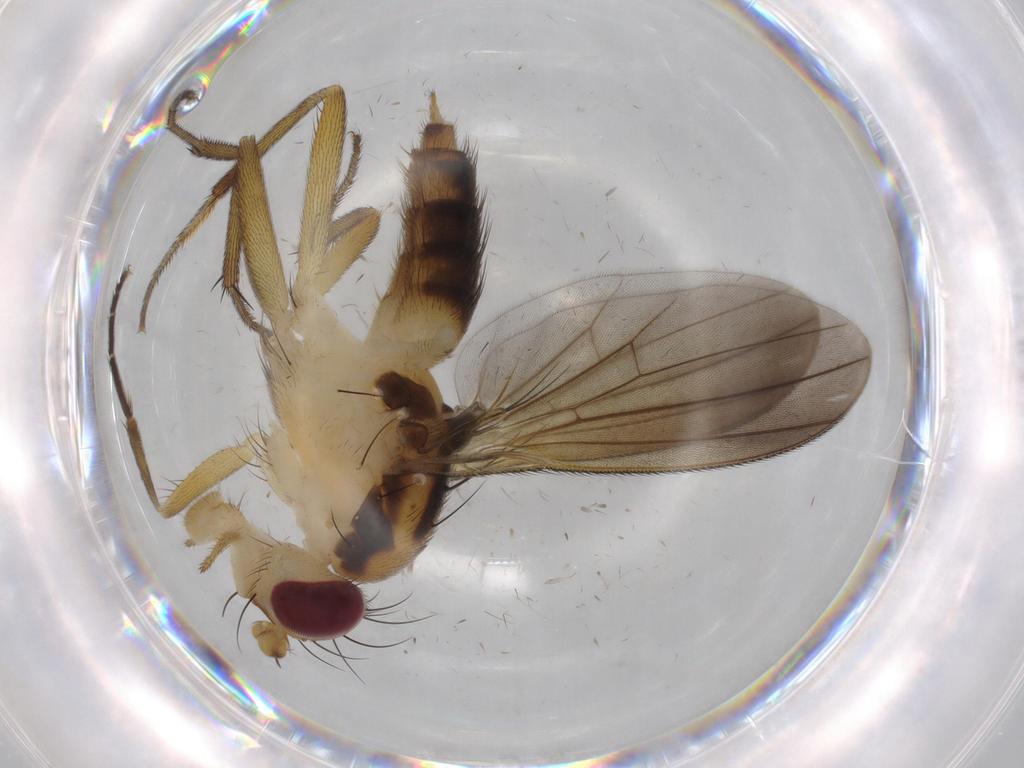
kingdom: Animalia
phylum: Arthropoda
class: Insecta
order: Diptera
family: Clusiidae
